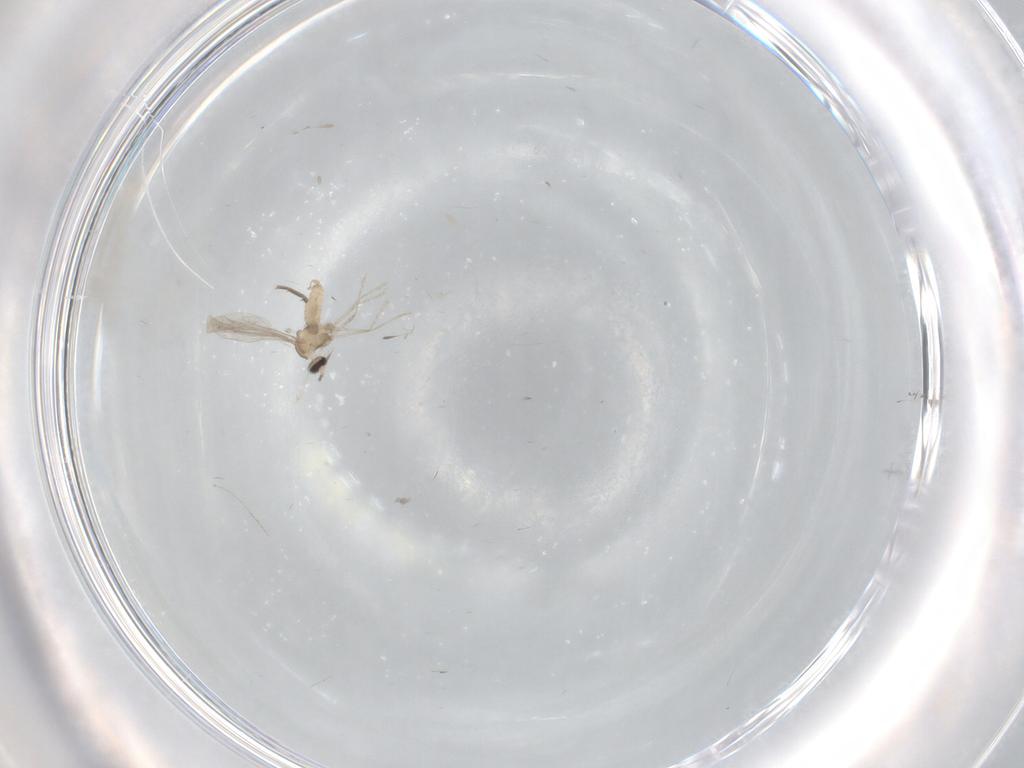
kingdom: Animalia
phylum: Arthropoda
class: Insecta
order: Diptera
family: Cecidomyiidae
